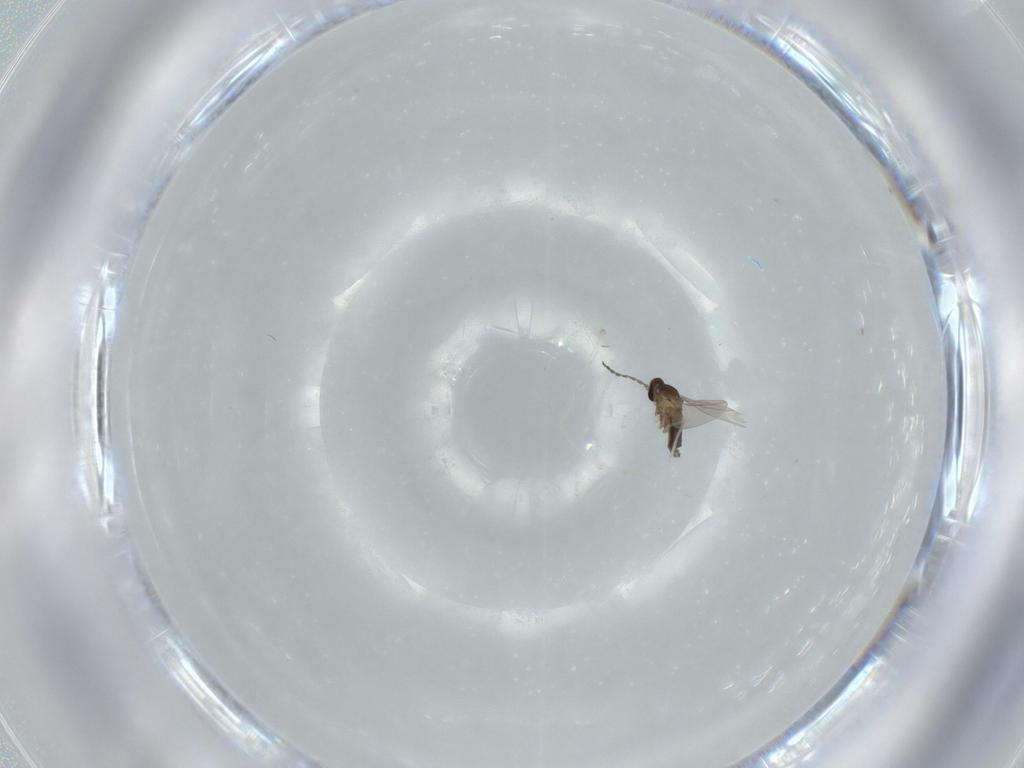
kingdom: Animalia
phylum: Arthropoda
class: Insecta
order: Diptera
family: Cecidomyiidae
